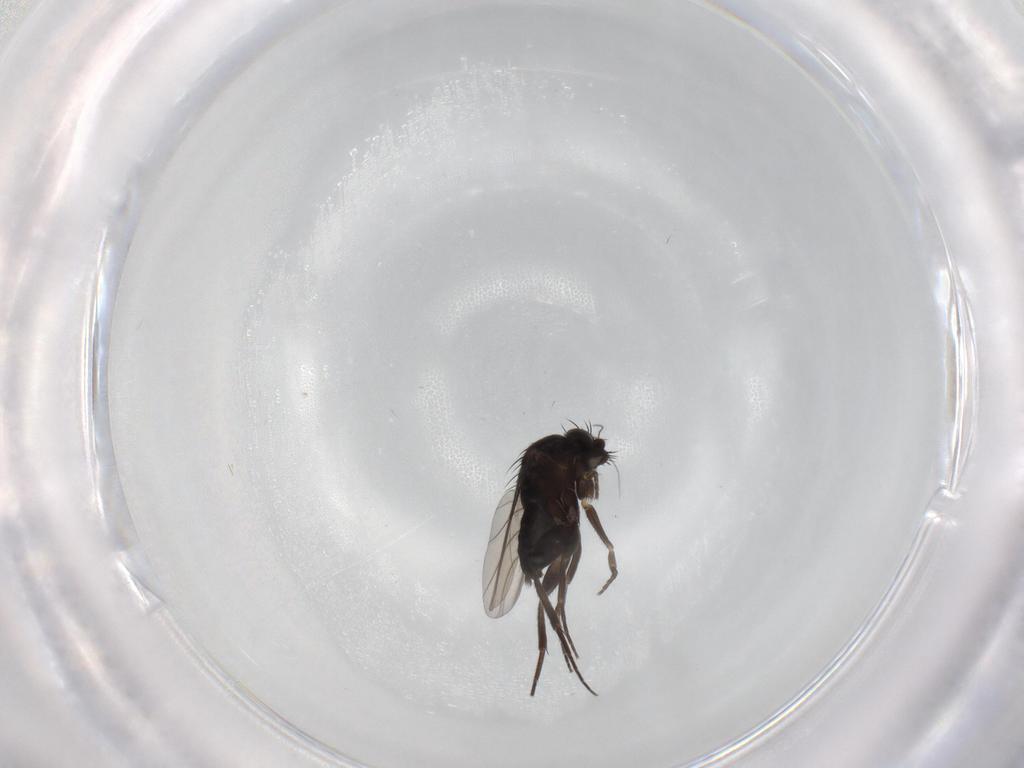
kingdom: Animalia
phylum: Arthropoda
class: Insecta
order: Diptera
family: Phoridae
